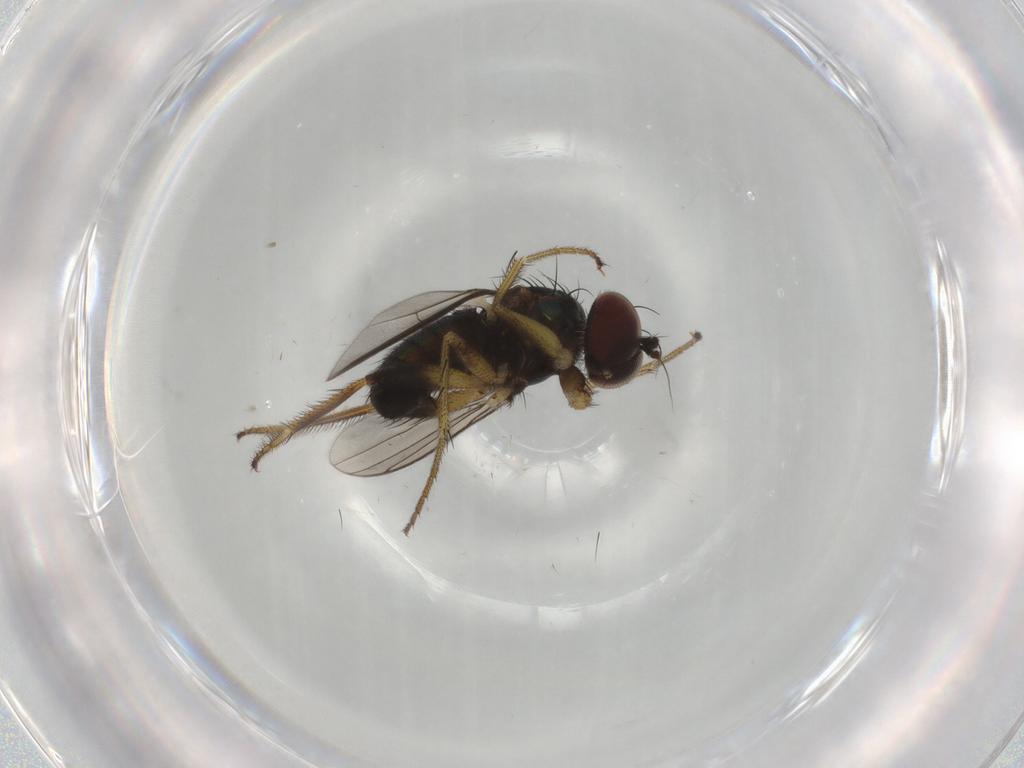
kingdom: Animalia
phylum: Arthropoda
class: Insecta
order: Diptera
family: Dolichopodidae
